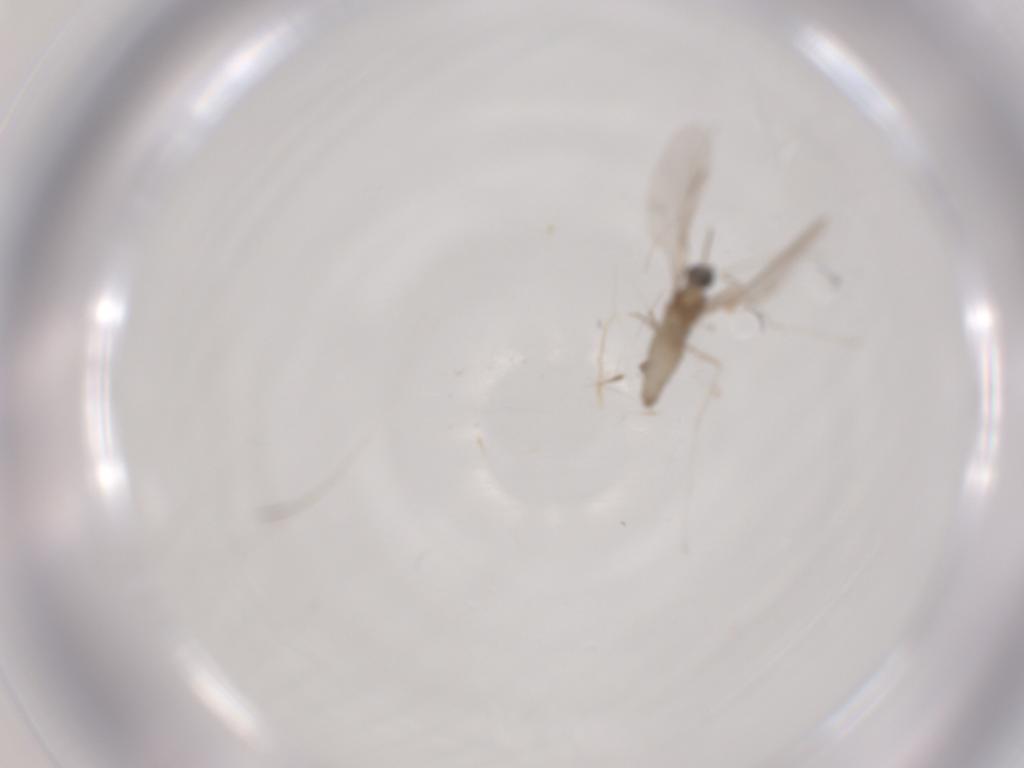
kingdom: Animalia
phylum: Arthropoda
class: Insecta
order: Diptera
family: Cecidomyiidae
